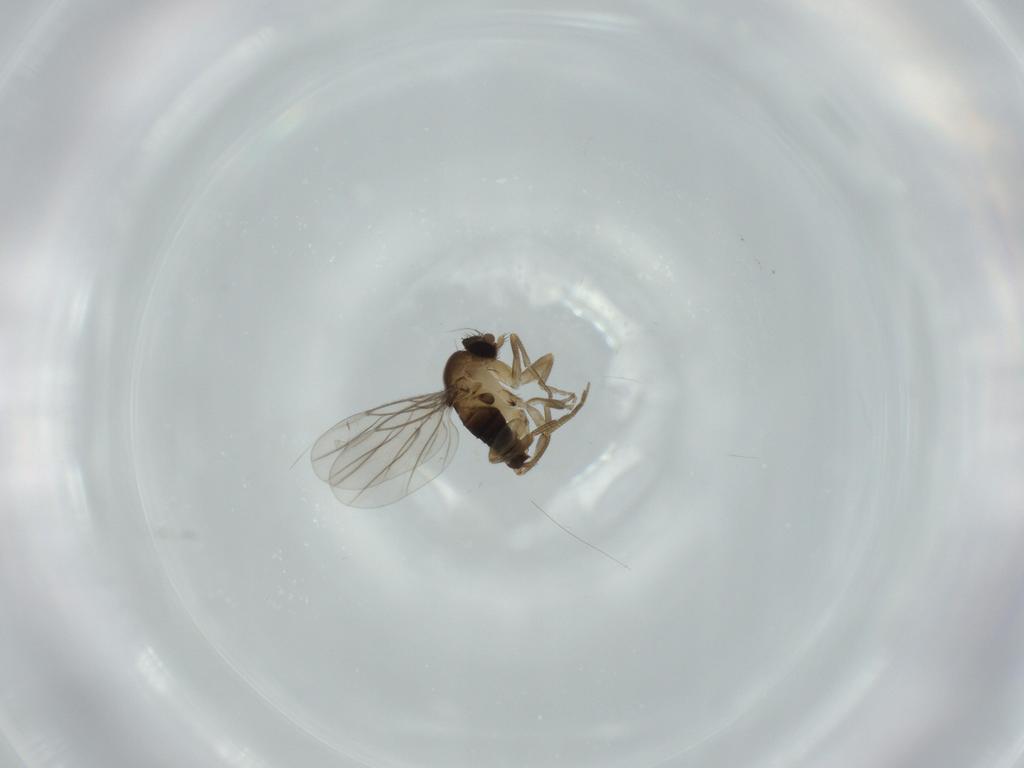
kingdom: Animalia
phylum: Arthropoda
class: Insecta
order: Diptera
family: Phoridae
